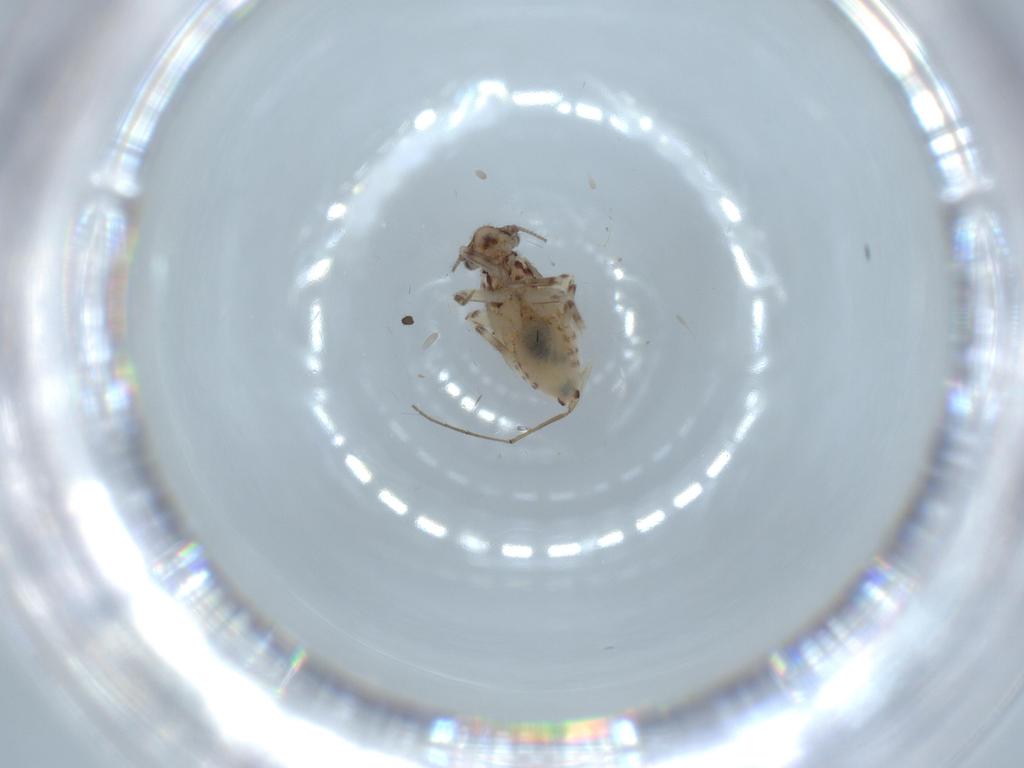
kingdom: Animalia
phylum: Arthropoda
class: Insecta
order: Psocodea
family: Lepidopsocidae
